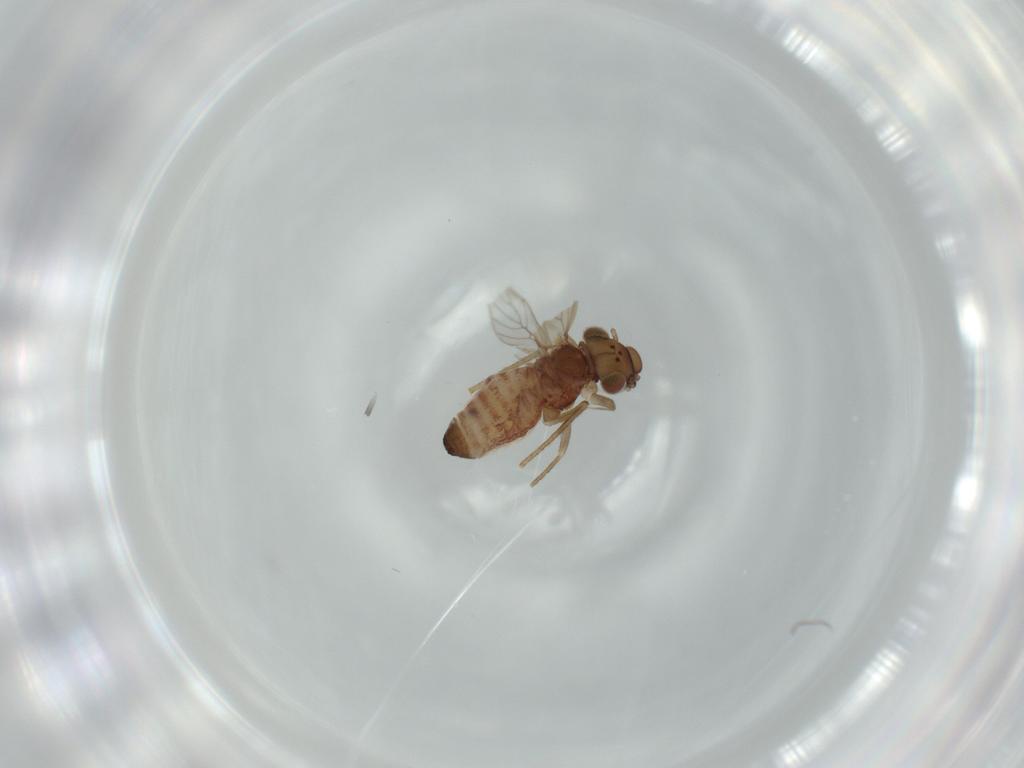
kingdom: Animalia
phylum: Arthropoda
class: Insecta
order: Psocodea
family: Lepidopsocidae
